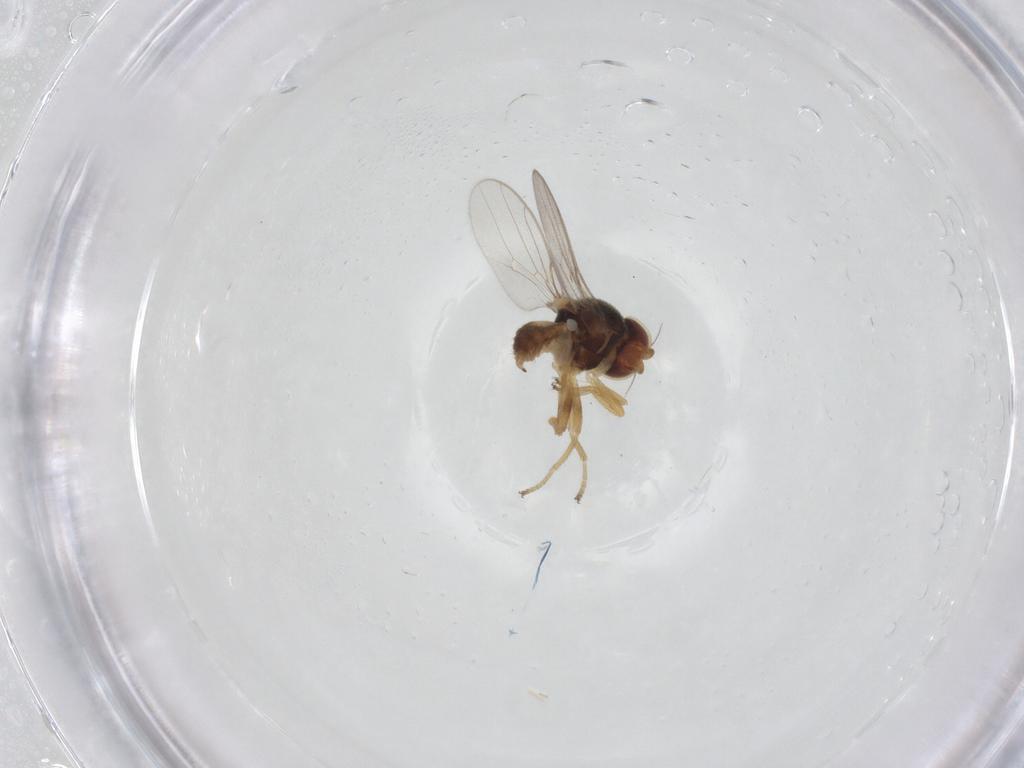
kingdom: Animalia
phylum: Arthropoda
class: Insecta
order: Diptera
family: Chloropidae
